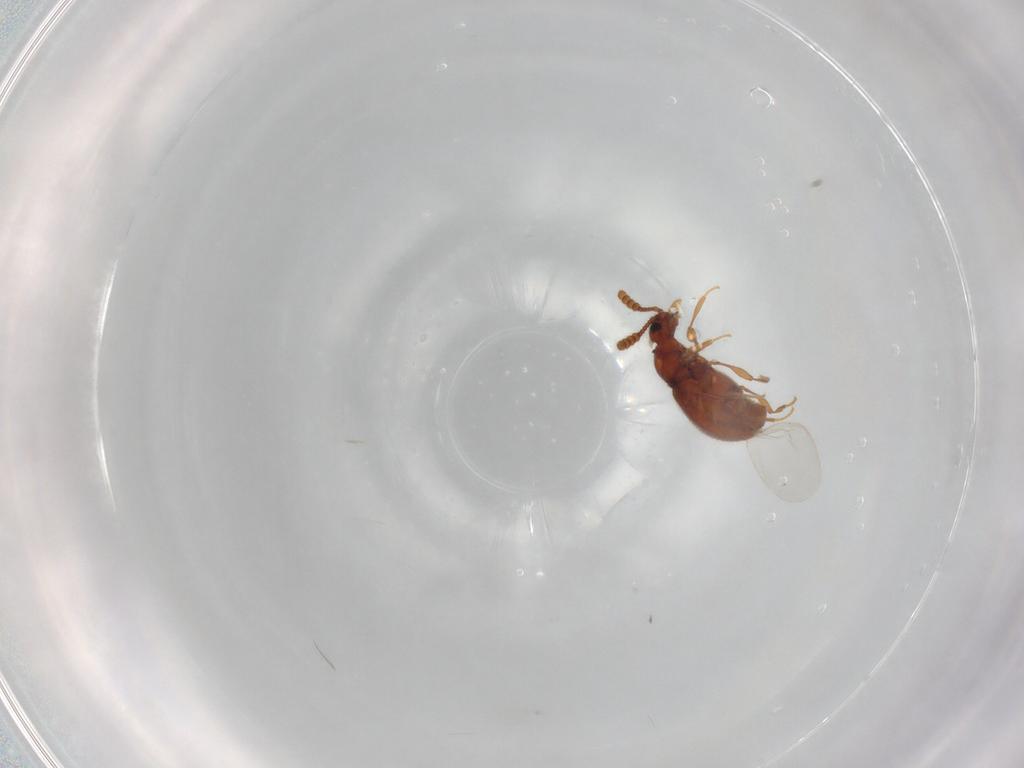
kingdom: Animalia
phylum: Arthropoda
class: Insecta
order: Coleoptera
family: Staphylinidae
